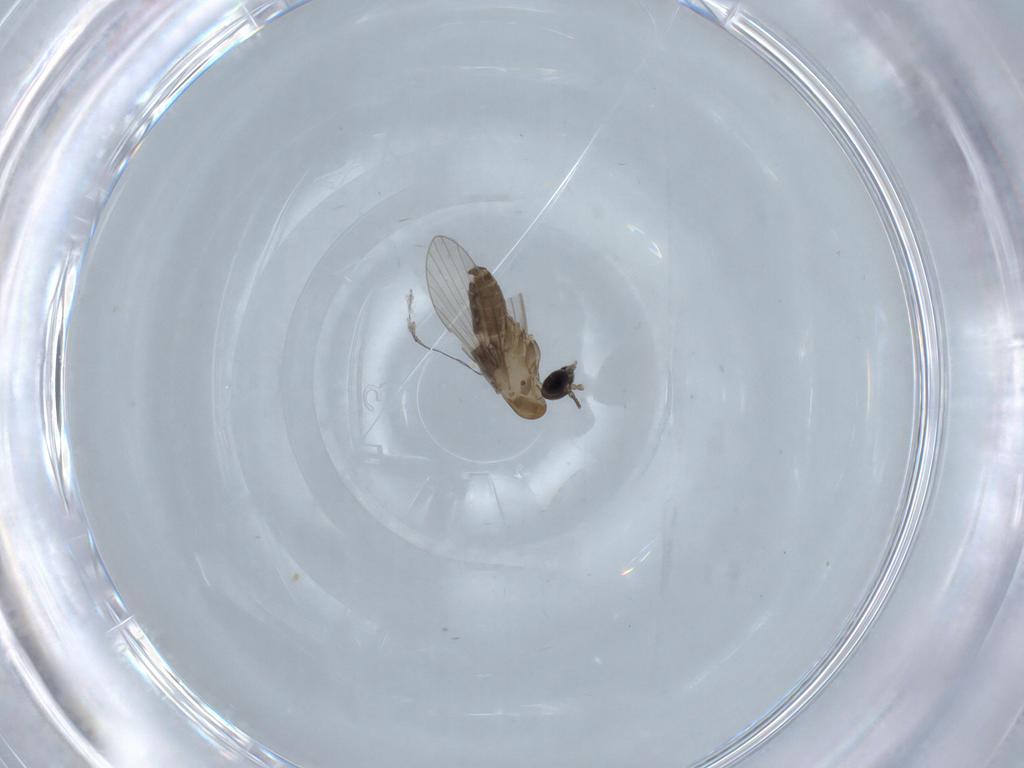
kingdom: Animalia
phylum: Arthropoda
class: Insecta
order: Diptera
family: Psychodidae
